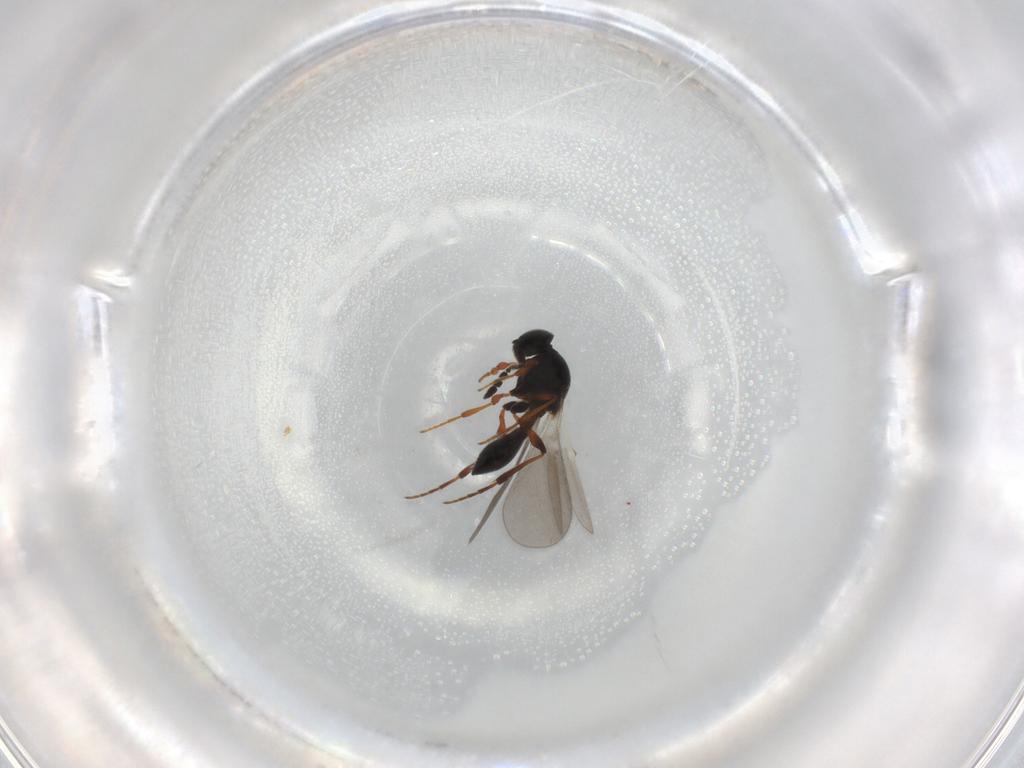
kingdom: Animalia
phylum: Arthropoda
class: Insecta
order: Hymenoptera
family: Platygastridae
